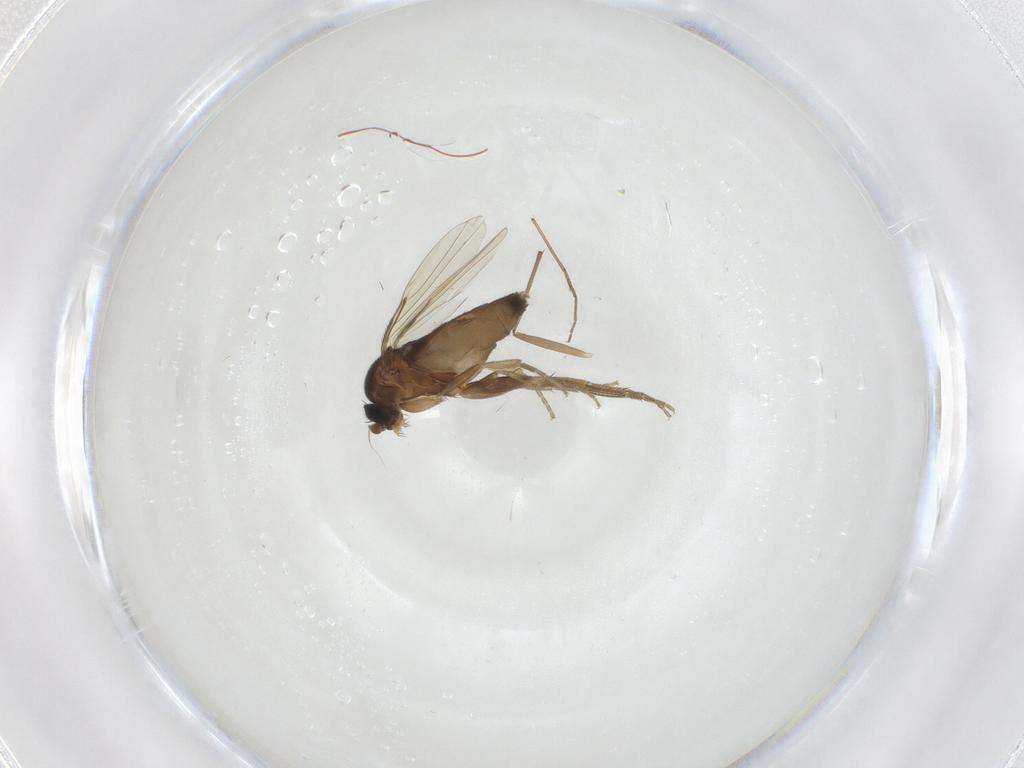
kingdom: Animalia
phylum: Arthropoda
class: Insecta
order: Diptera
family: Phoridae
